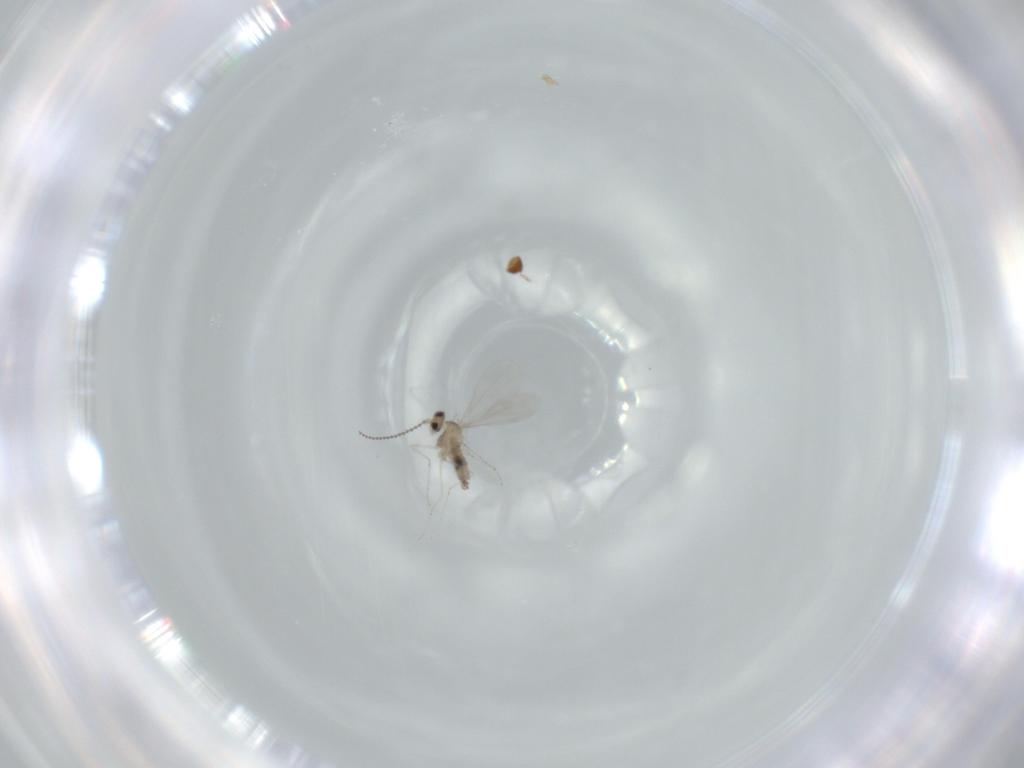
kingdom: Animalia
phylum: Arthropoda
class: Insecta
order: Diptera
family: Cecidomyiidae
